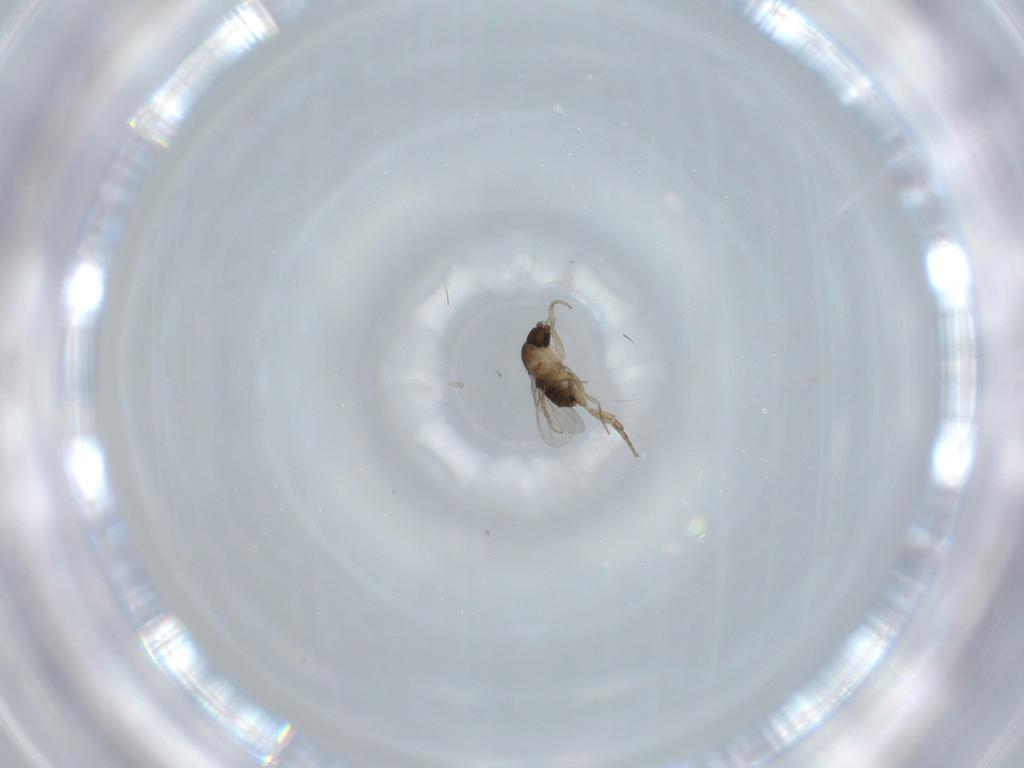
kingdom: Animalia
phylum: Arthropoda
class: Insecta
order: Diptera
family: Phoridae
